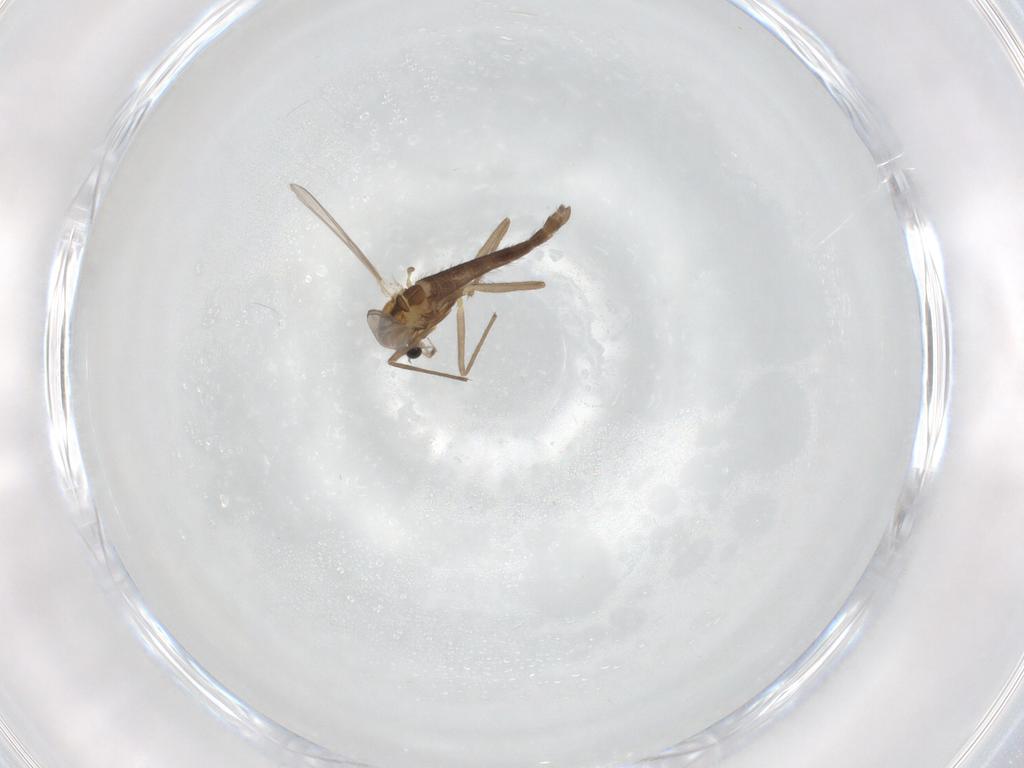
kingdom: Animalia
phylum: Arthropoda
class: Insecta
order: Diptera
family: Chironomidae
